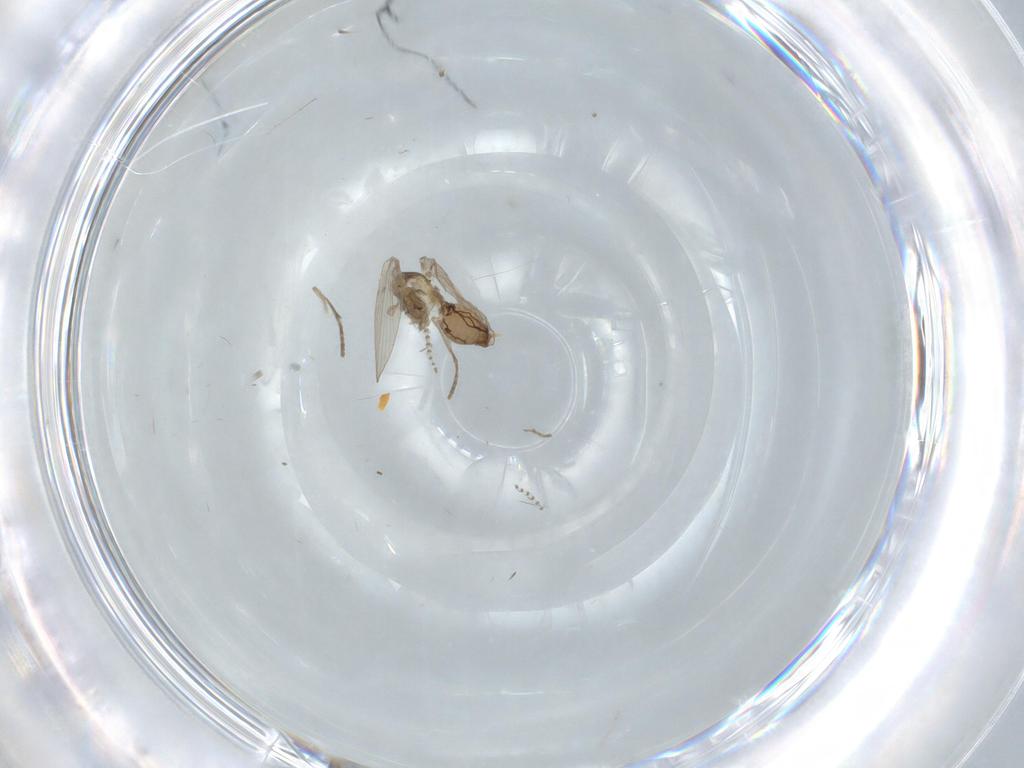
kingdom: Animalia
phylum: Arthropoda
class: Insecta
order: Diptera
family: Psychodidae
